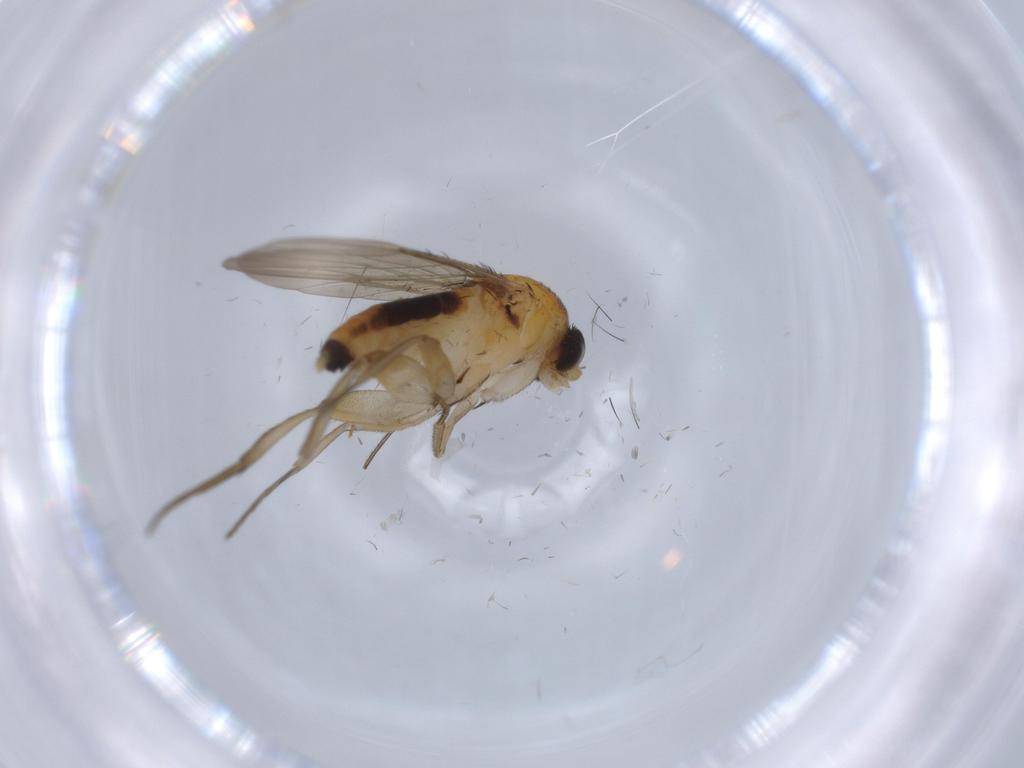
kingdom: Animalia
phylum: Arthropoda
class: Insecta
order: Diptera
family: Phoridae
